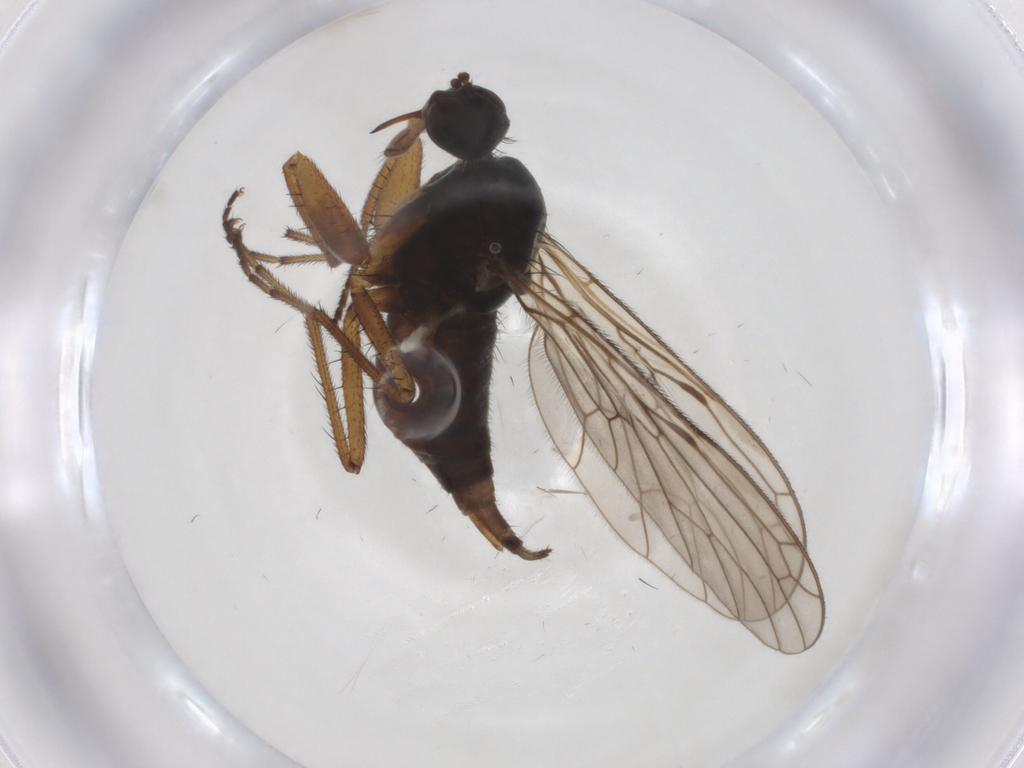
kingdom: Animalia
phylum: Arthropoda
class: Insecta
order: Diptera
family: Empididae
